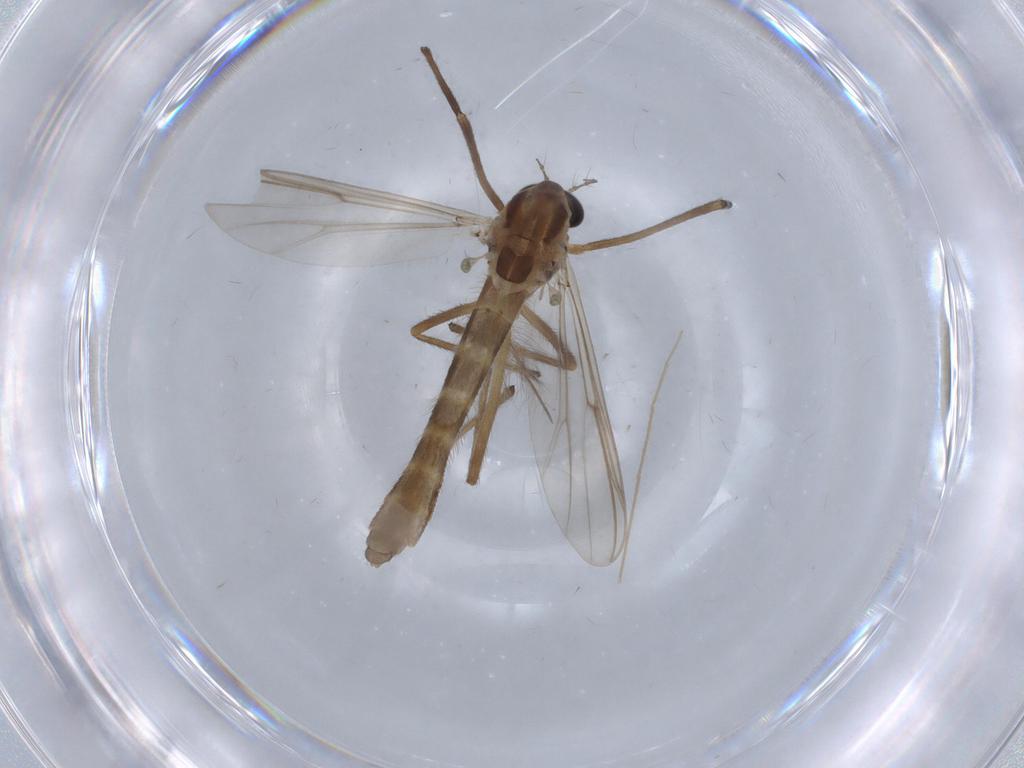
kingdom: Animalia
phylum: Arthropoda
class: Insecta
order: Diptera
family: Chironomidae
